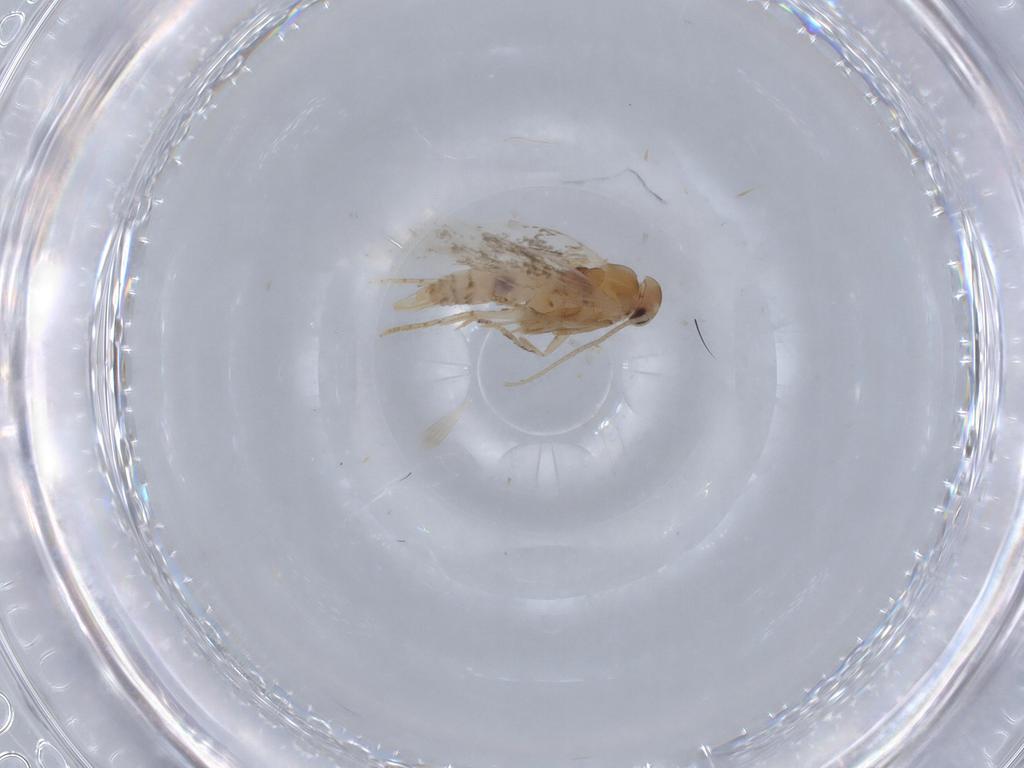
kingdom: Animalia
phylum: Arthropoda
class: Insecta
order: Lepidoptera
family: Elachistidae
